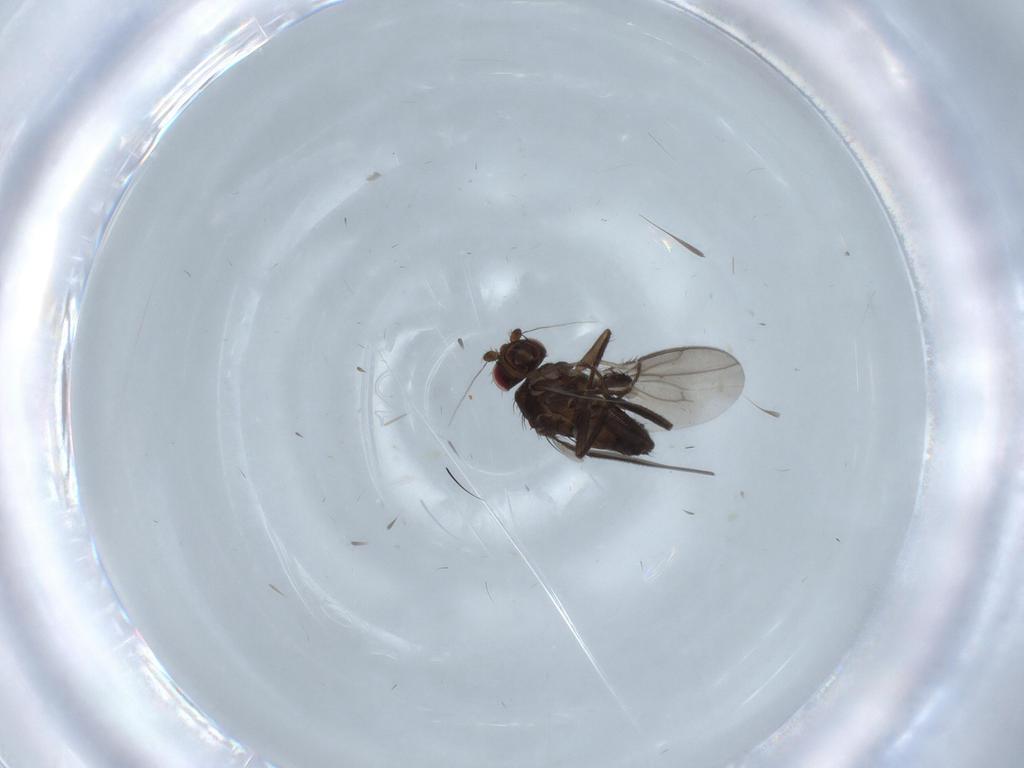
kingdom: Animalia
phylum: Arthropoda
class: Insecta
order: Diptera
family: Sphaeroceridae
